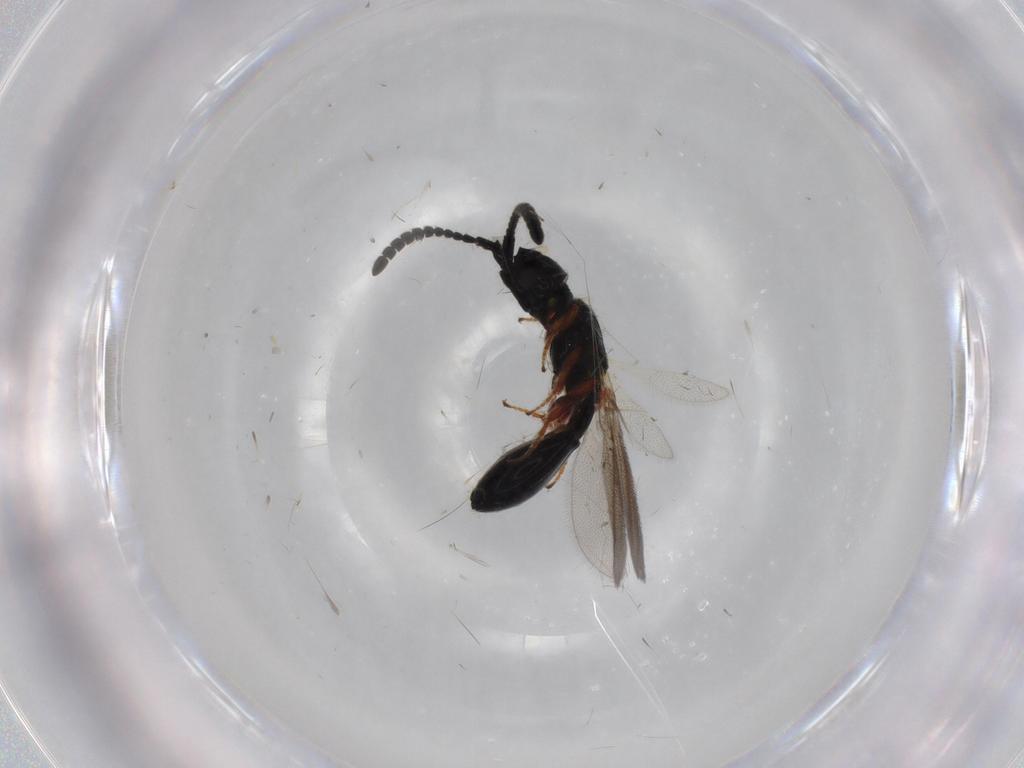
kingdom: Animalia
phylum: Arthropoda
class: Insecta
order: Hymenoptera
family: Diapriidae
